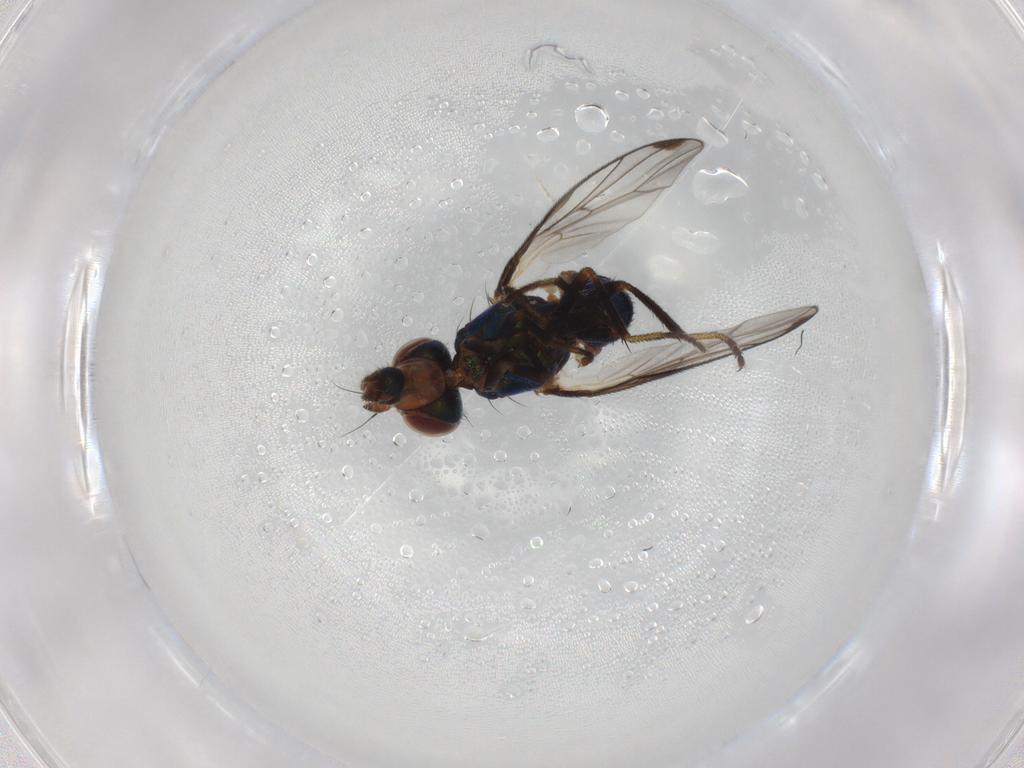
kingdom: Animalia
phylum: Arthropoda
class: Insecta
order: Diptera
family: Platystomatidae
